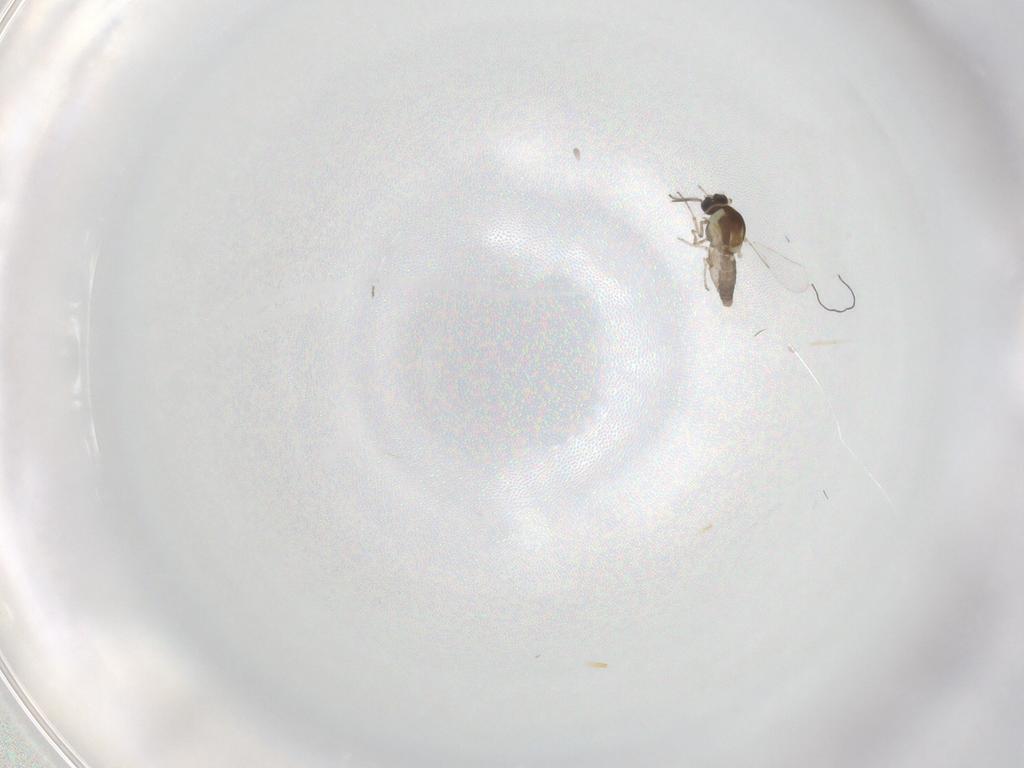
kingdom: Animalia
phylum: Arthropoda
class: Insecta
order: Diptera
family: Ceratopogonidae
